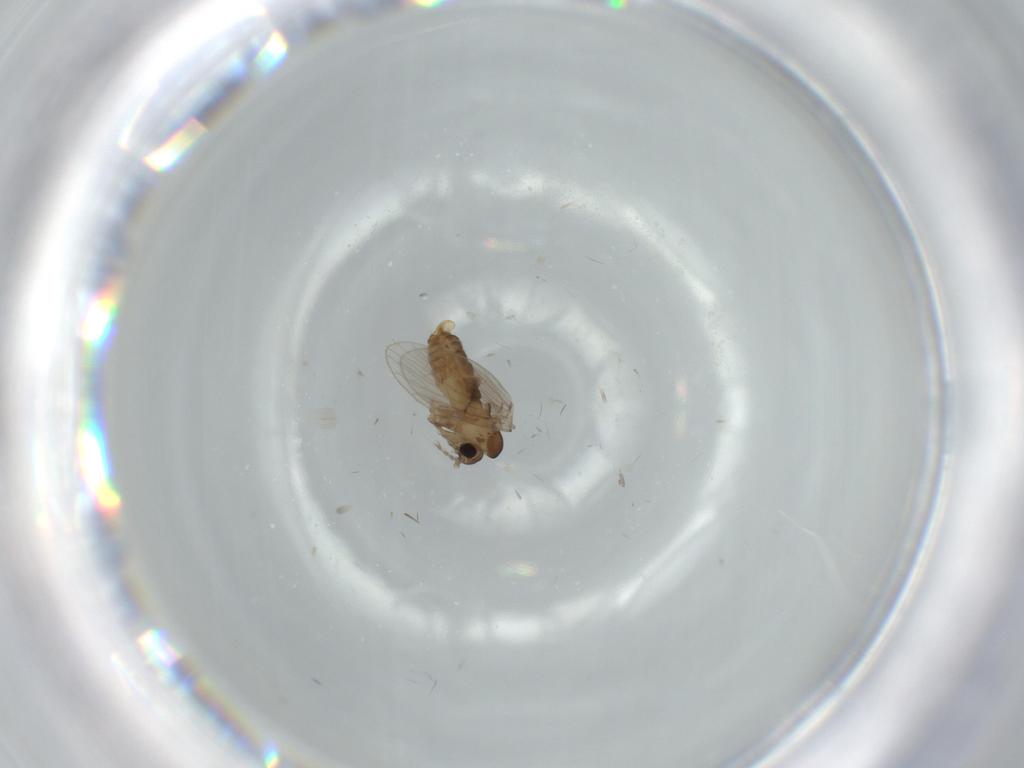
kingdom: Animalia
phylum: Arthropoda
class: Insecta
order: Diptera
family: Psychodidae
